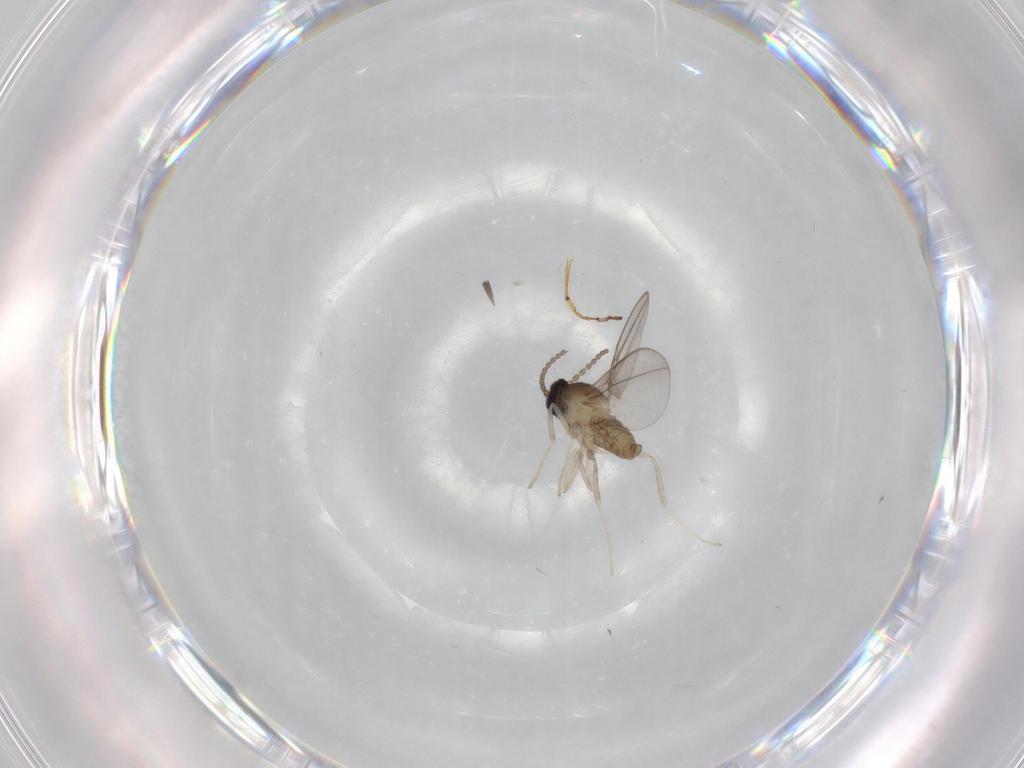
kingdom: Animalia
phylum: Arthropoda
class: Insecta
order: Diptera
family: Cecidomyiidae
